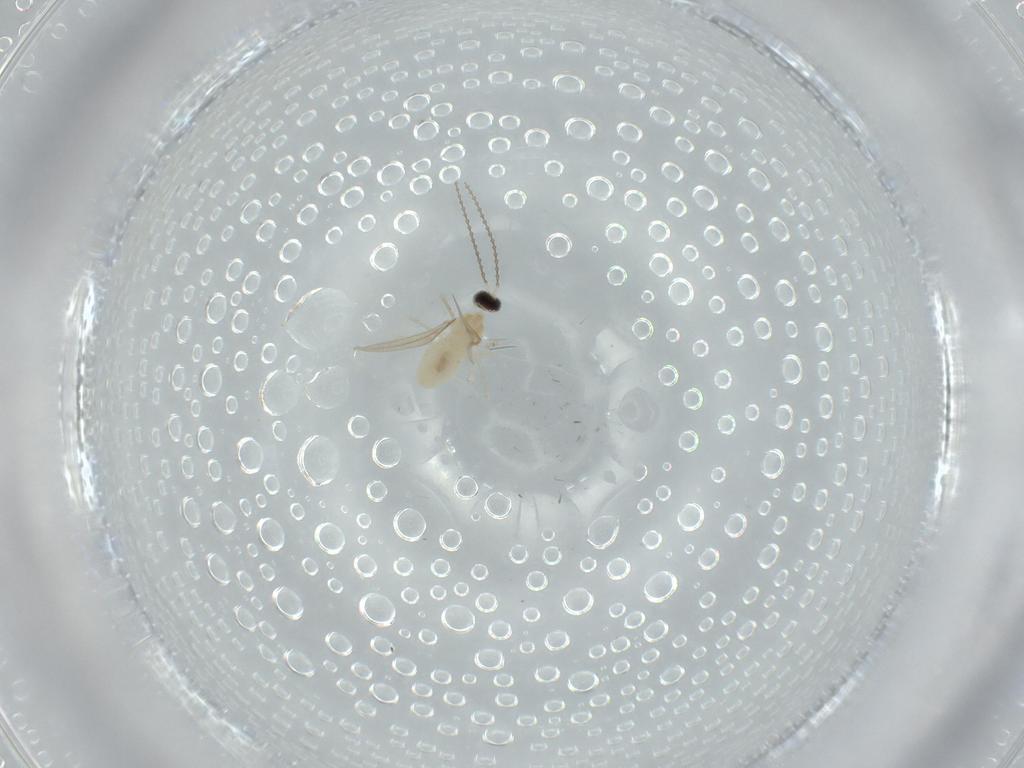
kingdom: Animalia
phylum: Arthropoda
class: Insecta
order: Diptera
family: Cecidomyiidae
